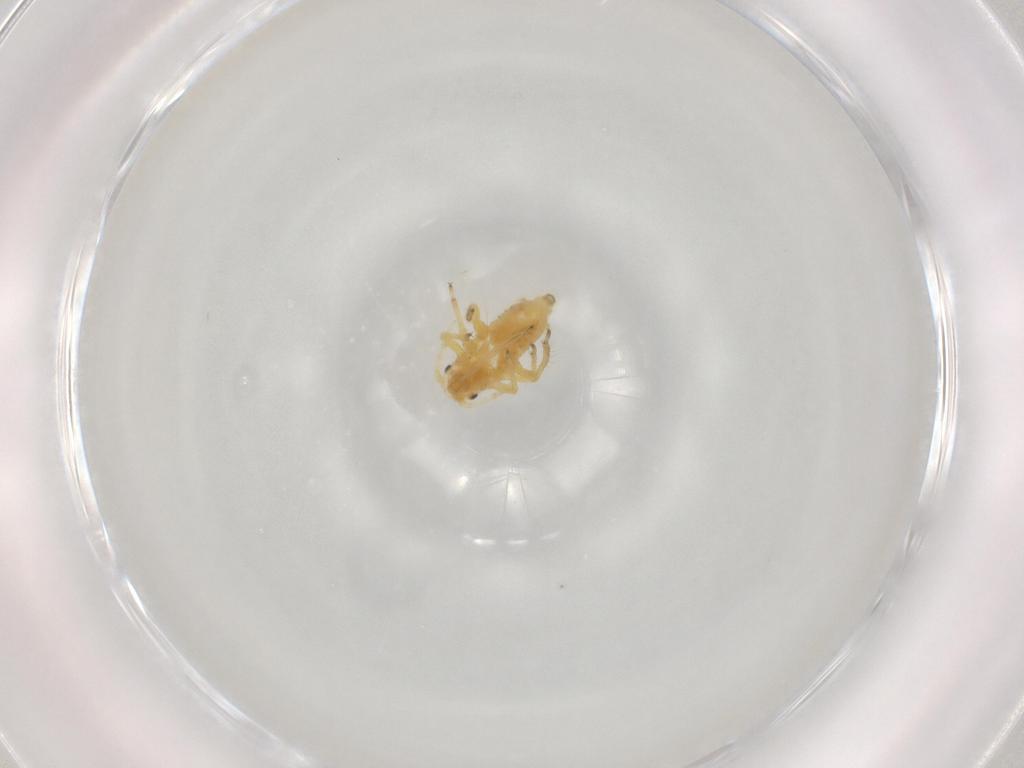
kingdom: Animalia
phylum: Arthropoda
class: Insecta
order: Hemiptera
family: Aphididae
